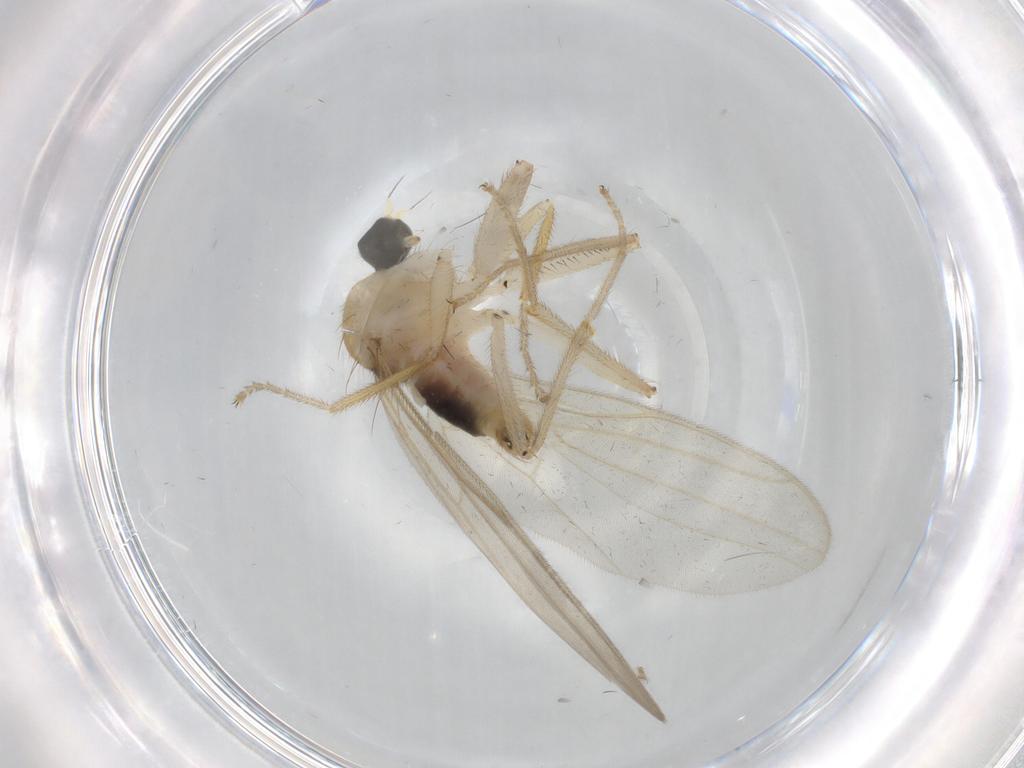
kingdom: Animalia
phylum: Arthropoda
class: Insecta
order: Diptera
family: Hybotidae
